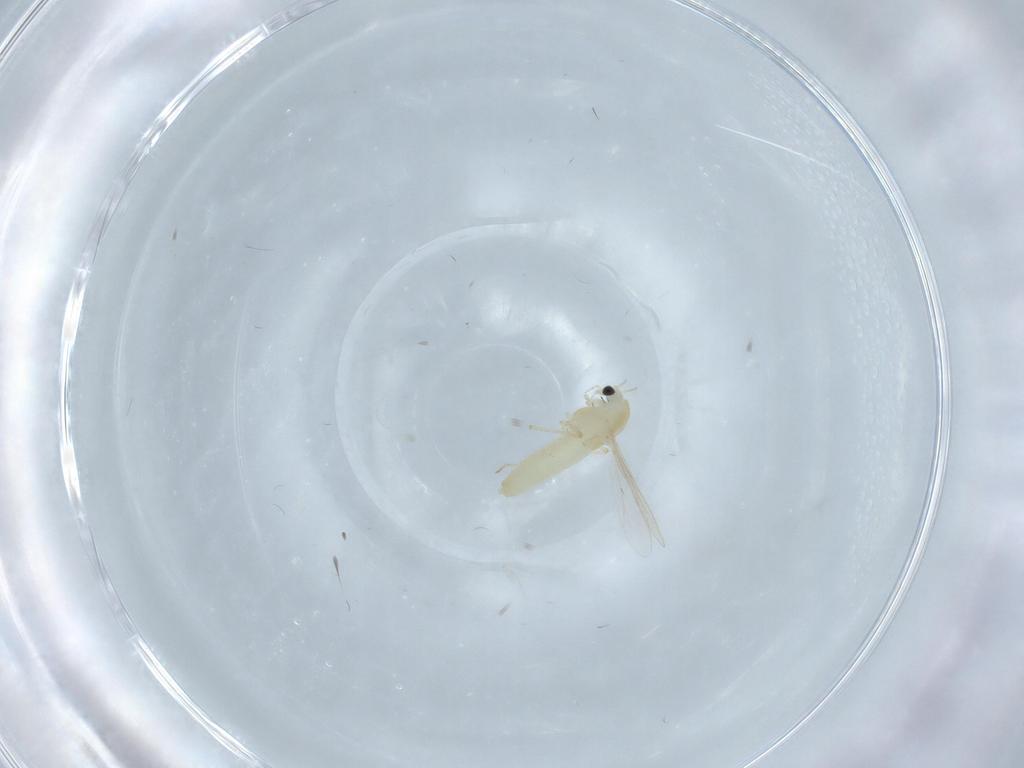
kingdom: Animalia
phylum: Arthropoda
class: Insecta
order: Diptera
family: Chironomidae
